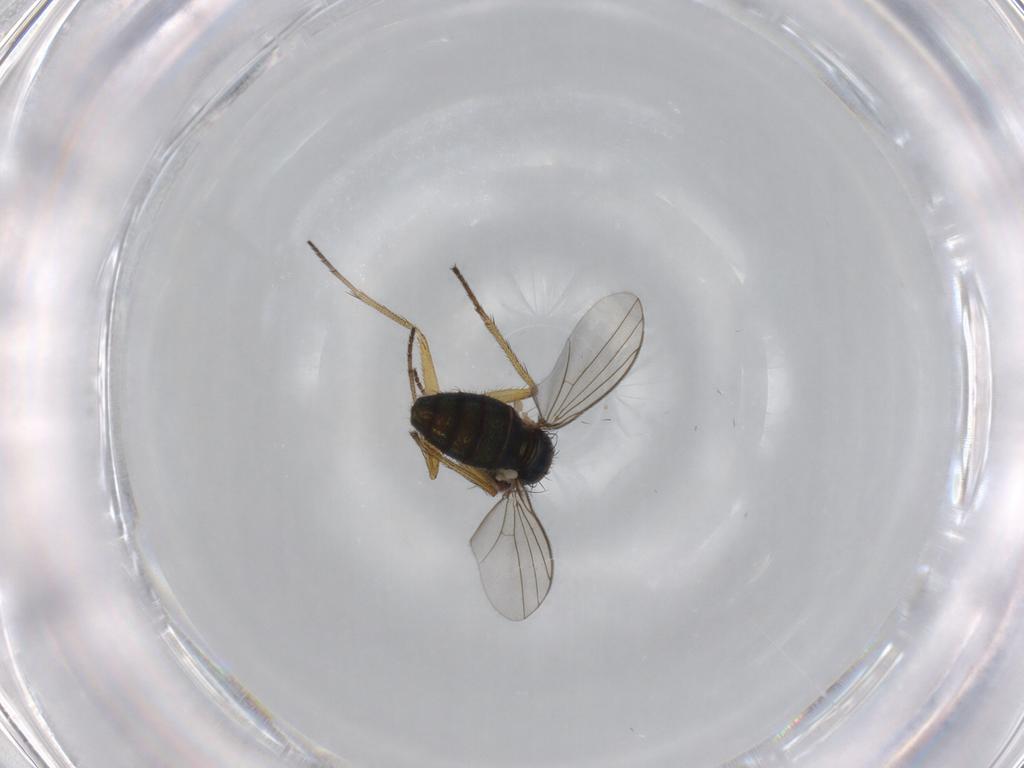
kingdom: Animalia
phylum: Arthropoda
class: Insecta
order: Diptera
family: Dolichopodidae
